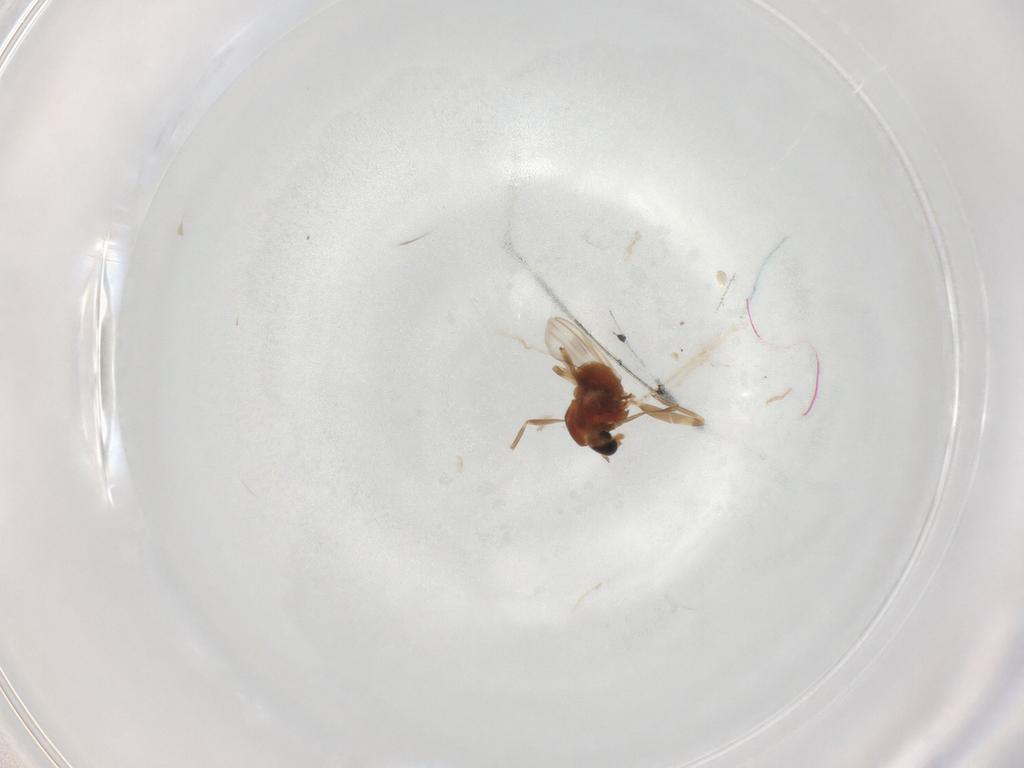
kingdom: Animalia
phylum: Arthropoda
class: Insecta
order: Diptera
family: Chironomidae
